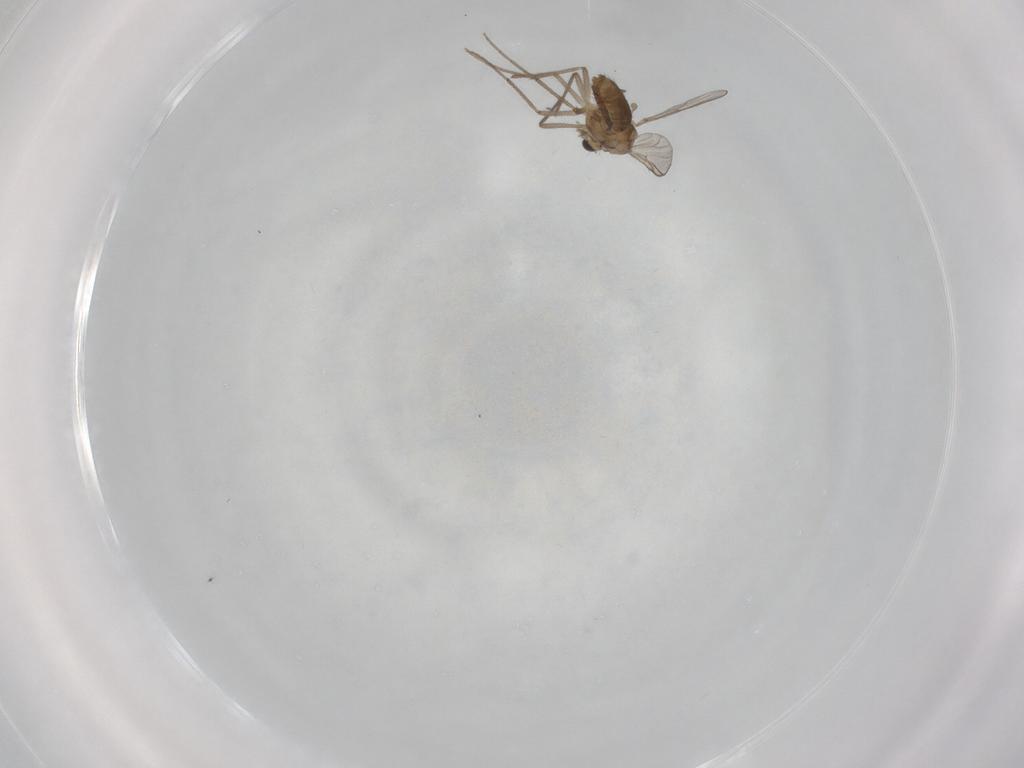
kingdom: Animalia
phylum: Arthropoda
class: Insecta
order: Diptera
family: Chironomidae
